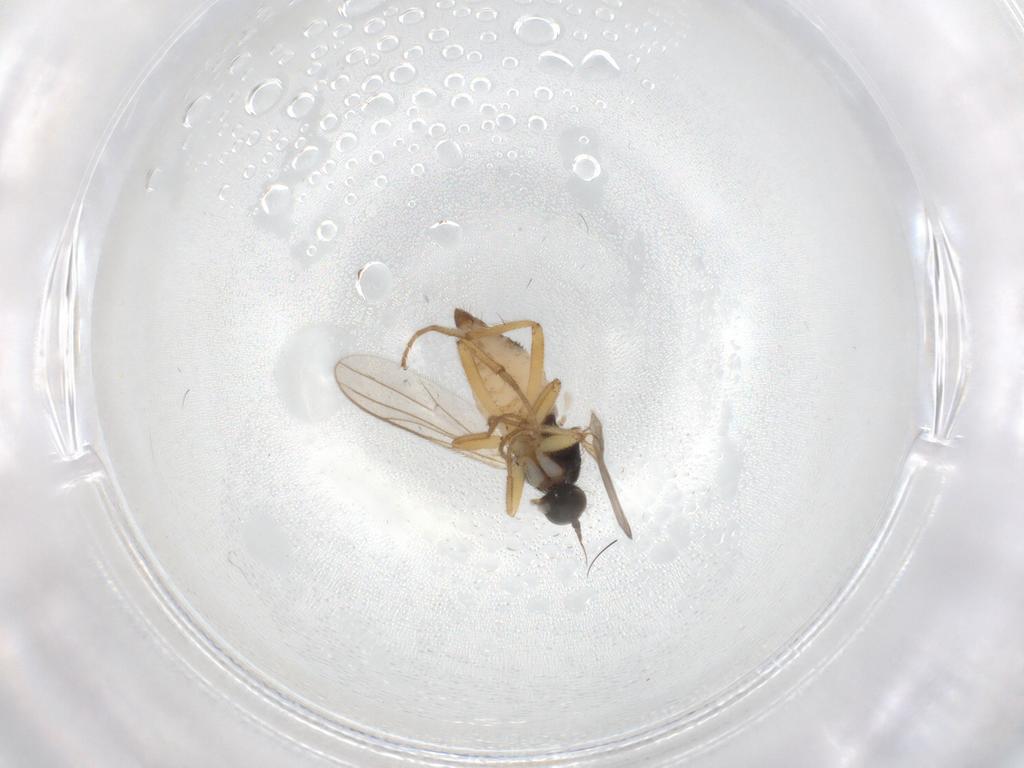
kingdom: Animalia
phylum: Arthropoda
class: Insecta
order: Diptera
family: Hybotidae
